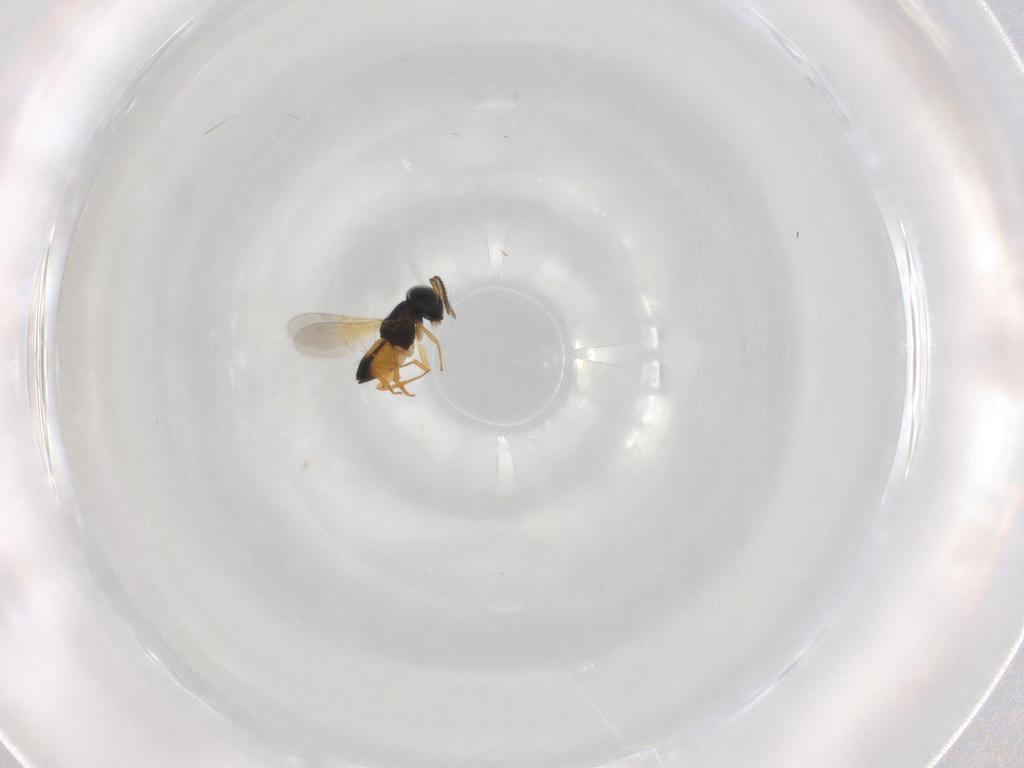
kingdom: Animalia
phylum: Arthropoda
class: Insecta
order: Hymenoptera
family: Encyrtidae
